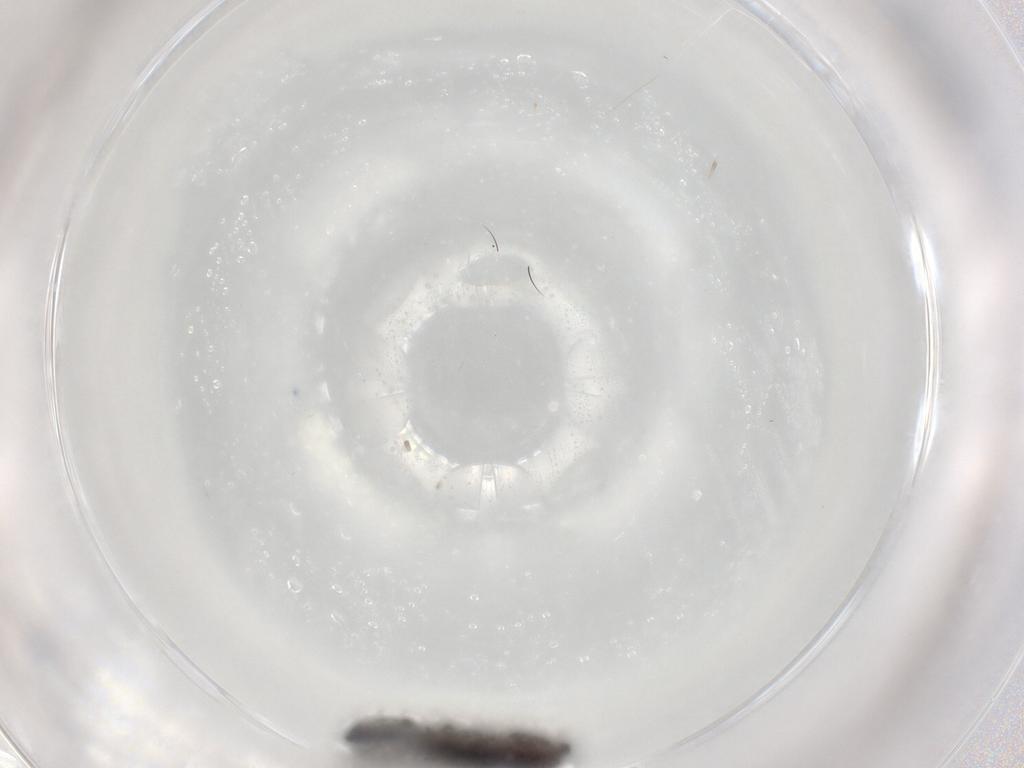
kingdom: Animalia
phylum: Arthropoda
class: Insecta
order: Diptera
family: Dolichopodidae
